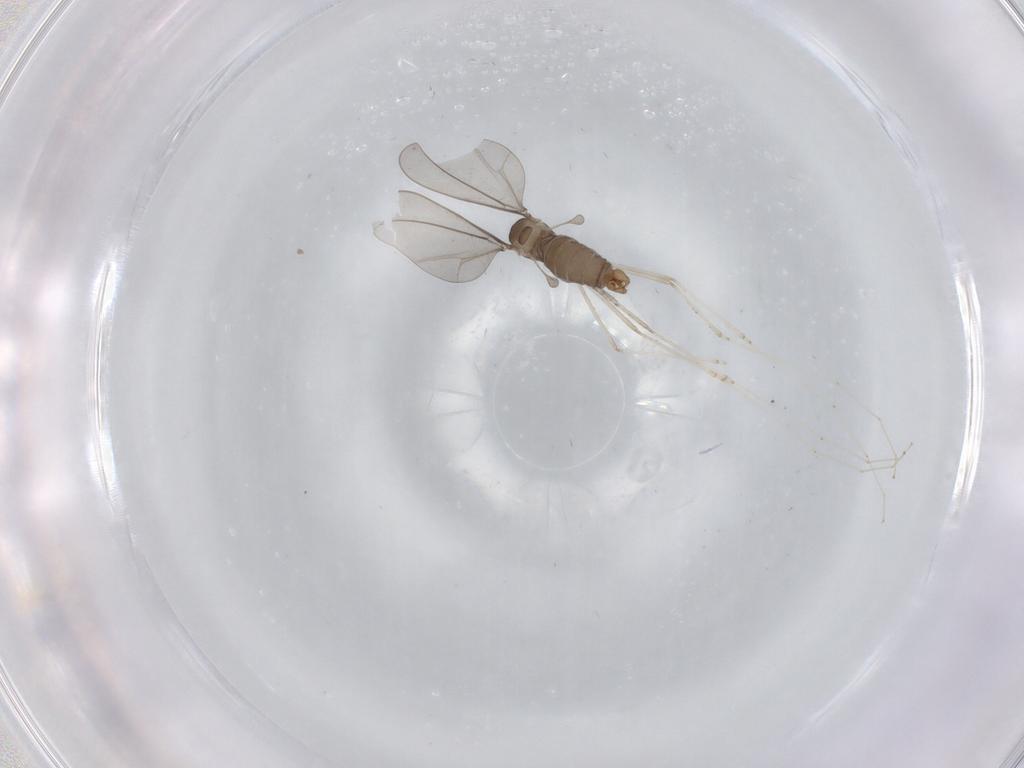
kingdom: Animalia
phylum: Arthropoda
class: Insecta
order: Diptera
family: Cecidomyiidae
